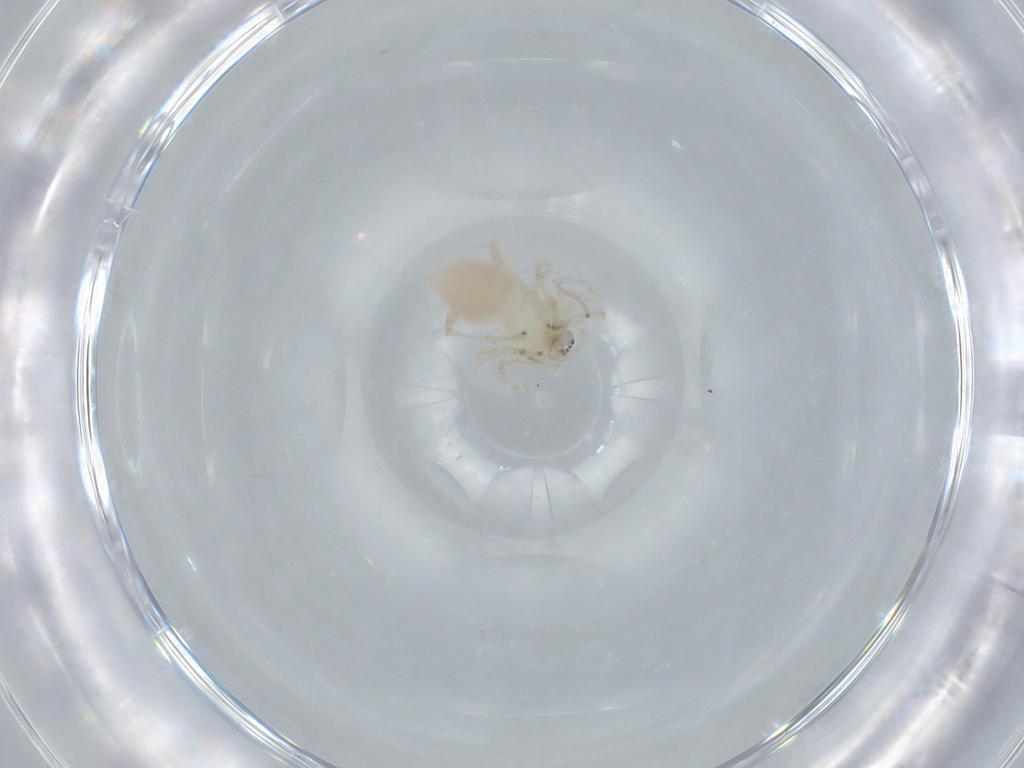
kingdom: Animalia
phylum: Arthropoda
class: Arachnida
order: Araneae
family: Anyphaenidae
